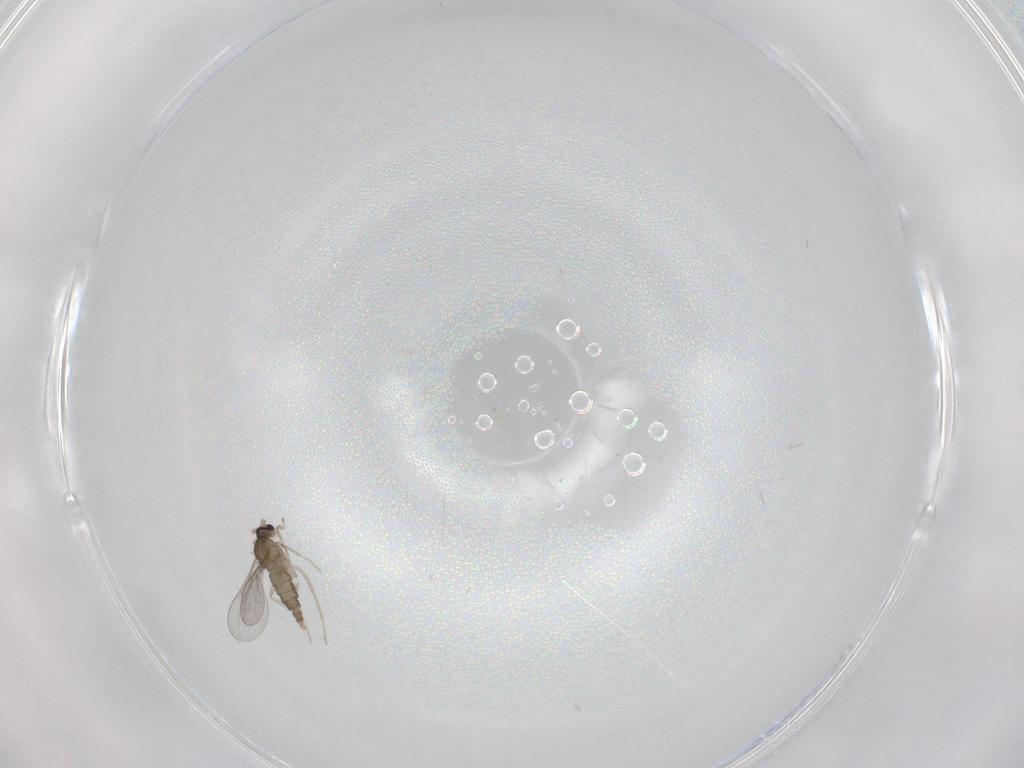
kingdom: Animalia
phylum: Arthropoda
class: Insecta
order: Diptera
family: Cecidomyiidae
